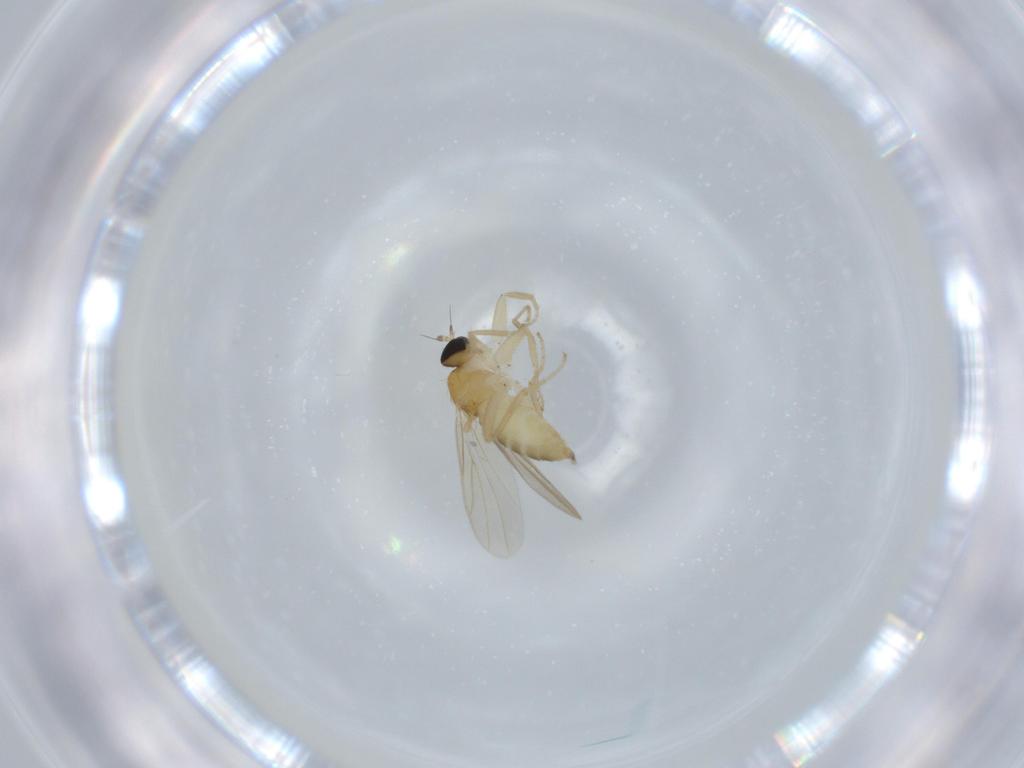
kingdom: Animalia
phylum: Arthropoda
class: Insecta
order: Diptera
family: Hybotidae
